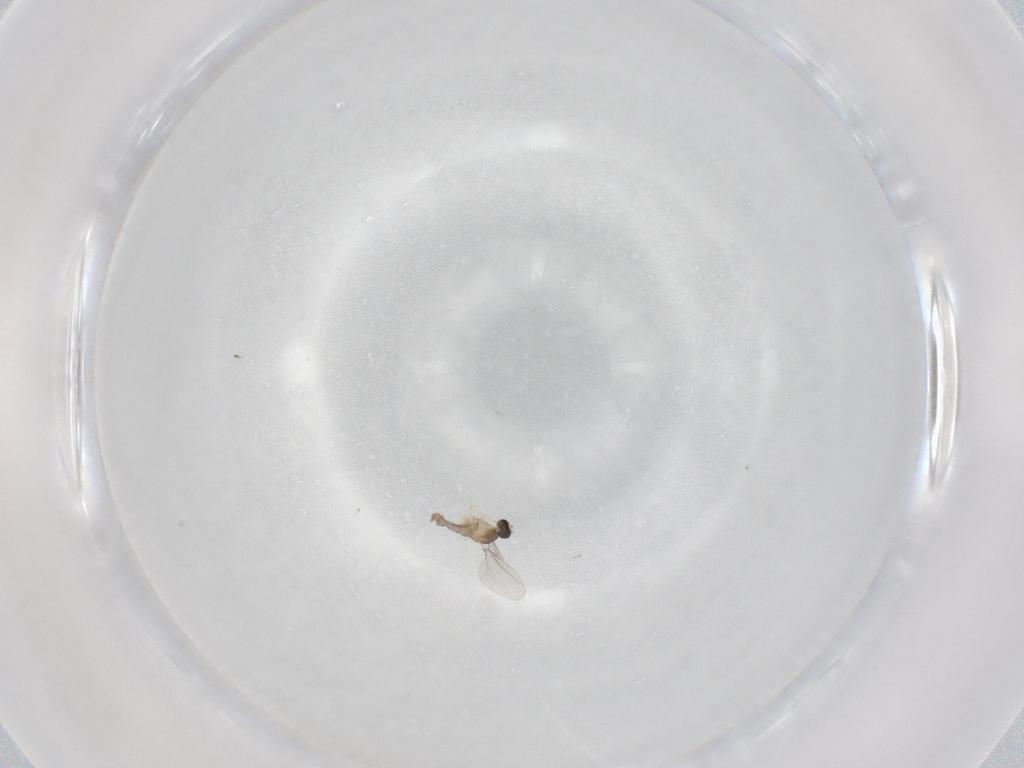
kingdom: Animalia
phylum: Arthropoda
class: Insecta
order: Diptera
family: Cecidomyiidae
